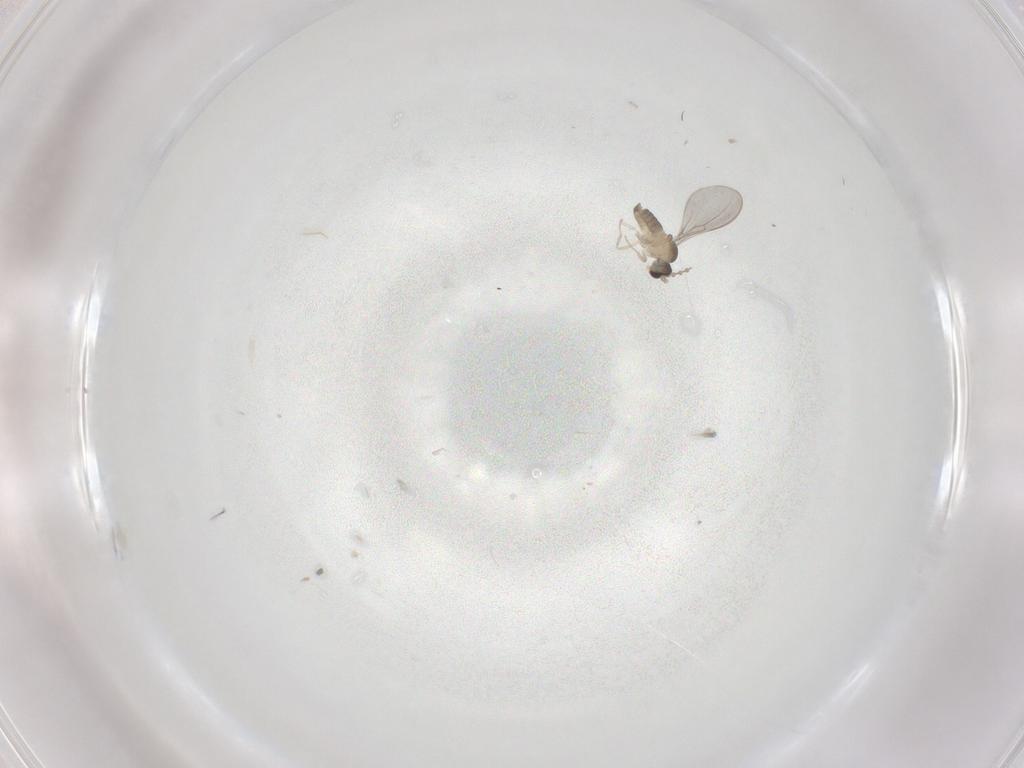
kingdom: Animalia
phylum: Arthropoda
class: Insecta
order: Diptera
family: Cecidomyiidae
